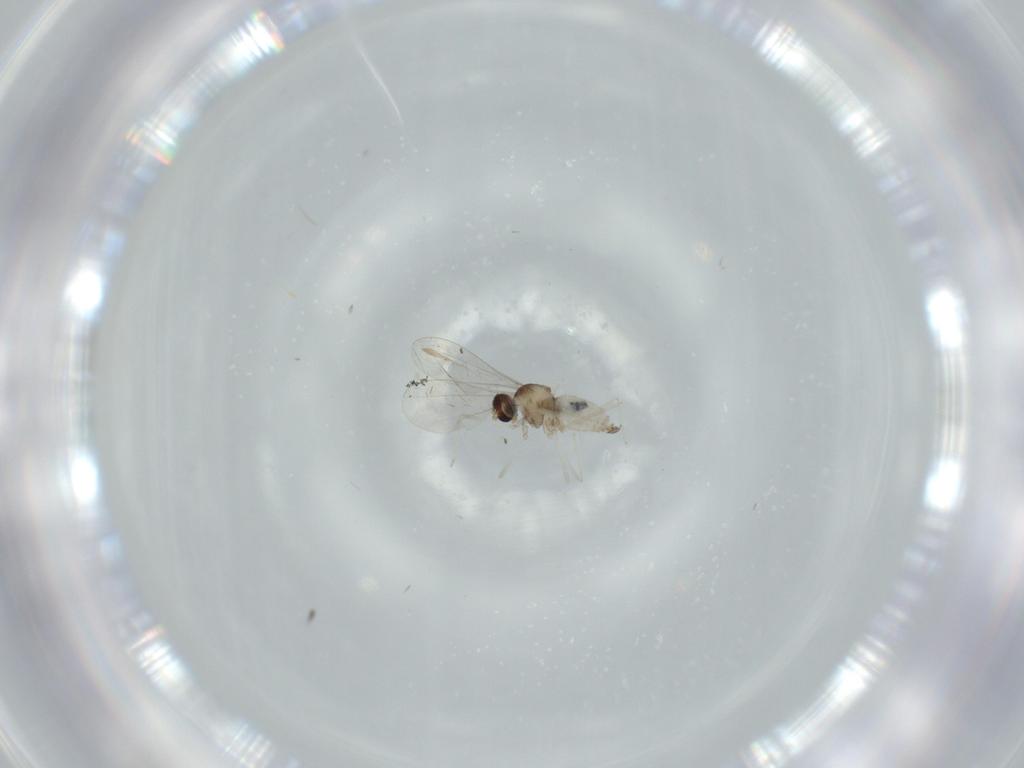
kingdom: Animalia
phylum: Arthropoda
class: Insecta
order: Diptera
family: Cecidomyiidae
